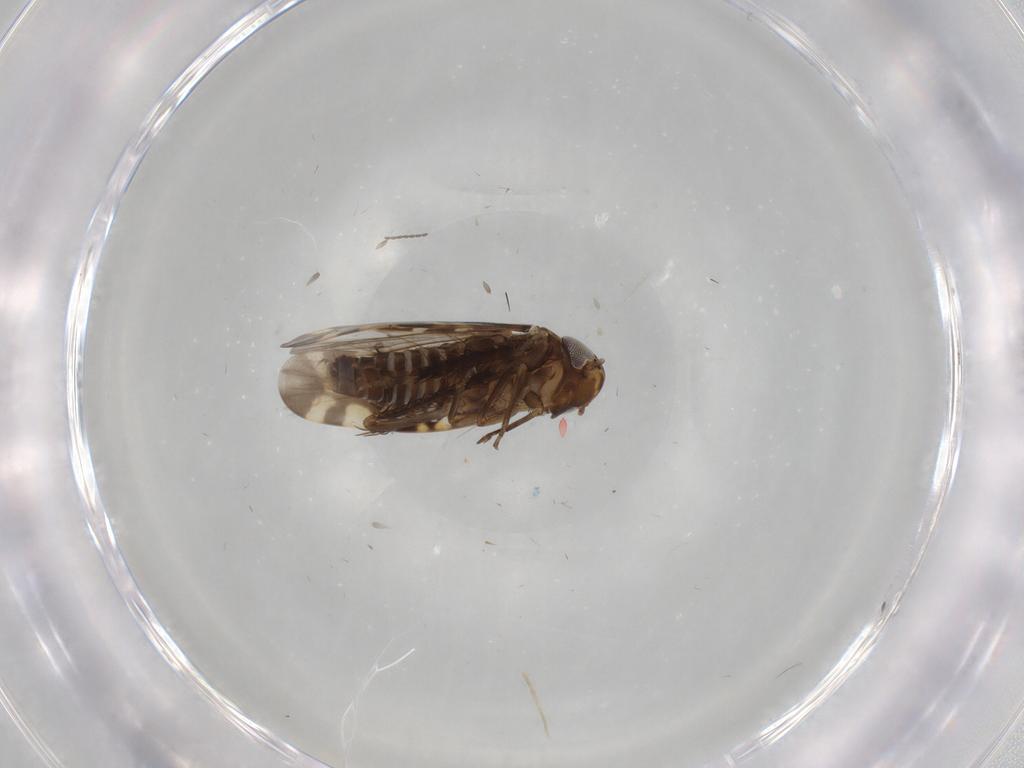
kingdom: Animalia
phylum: Arthropoda
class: Insecta
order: Hemiptera
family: Cicadellidae
